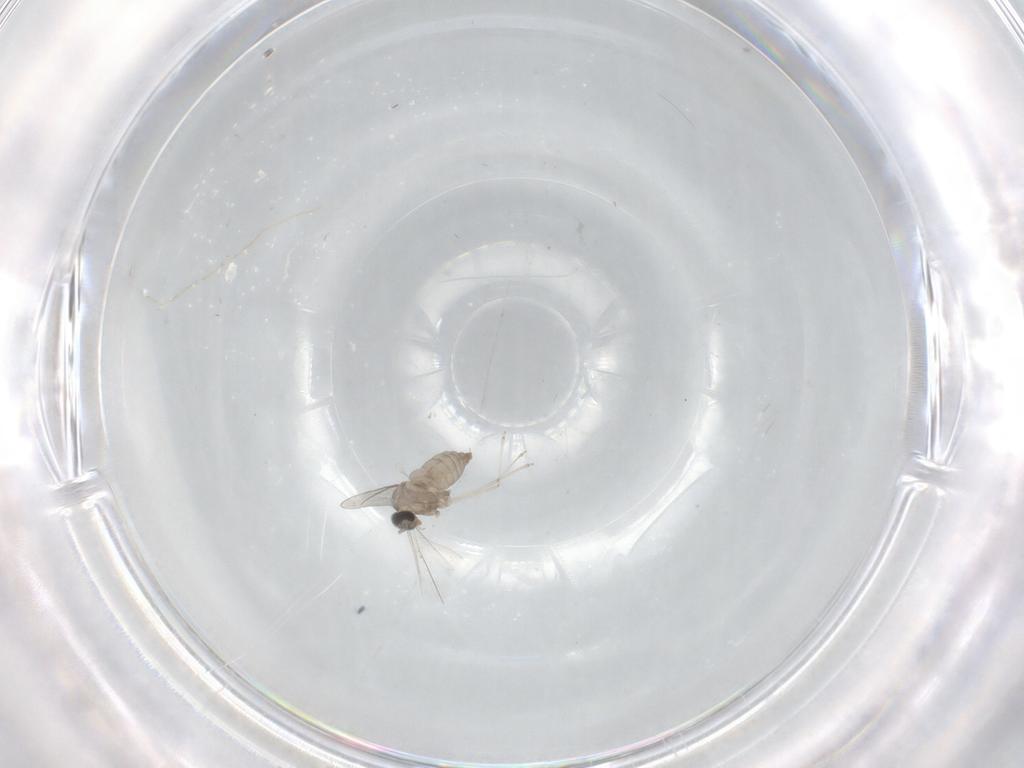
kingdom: Animalia
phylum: Arthropoda
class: Insecta
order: Diptera
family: Cecidomyiidae
